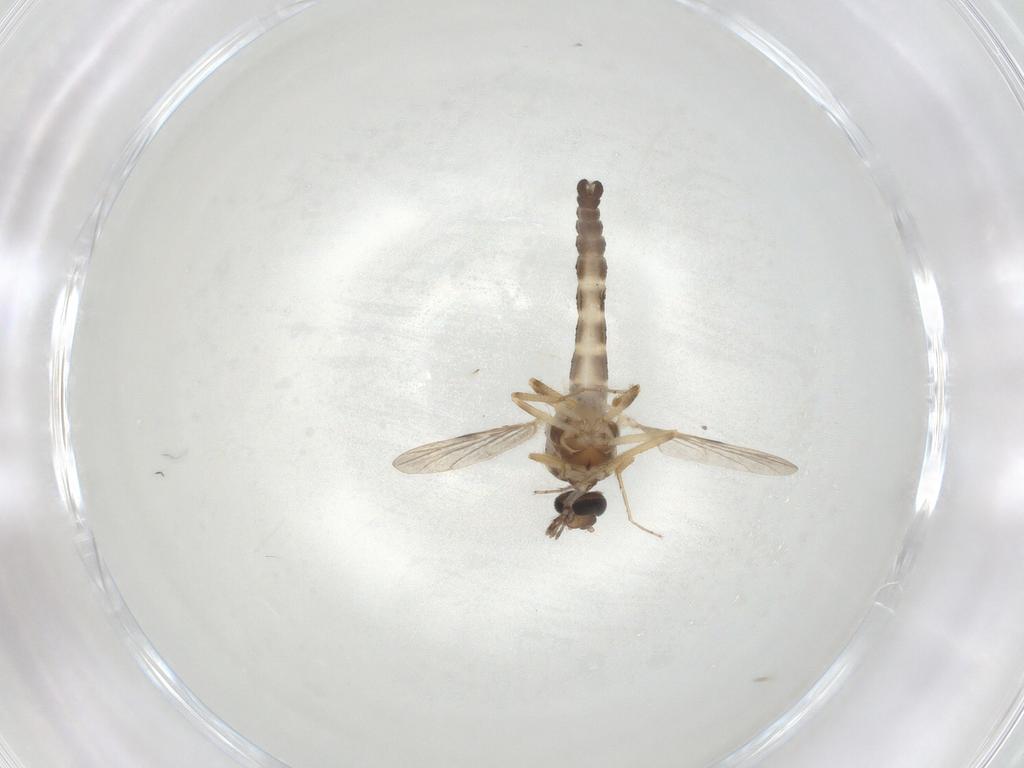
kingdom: Animalia
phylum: Arthropoda
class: Insecta
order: Diptera
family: Ceratopogonidae
